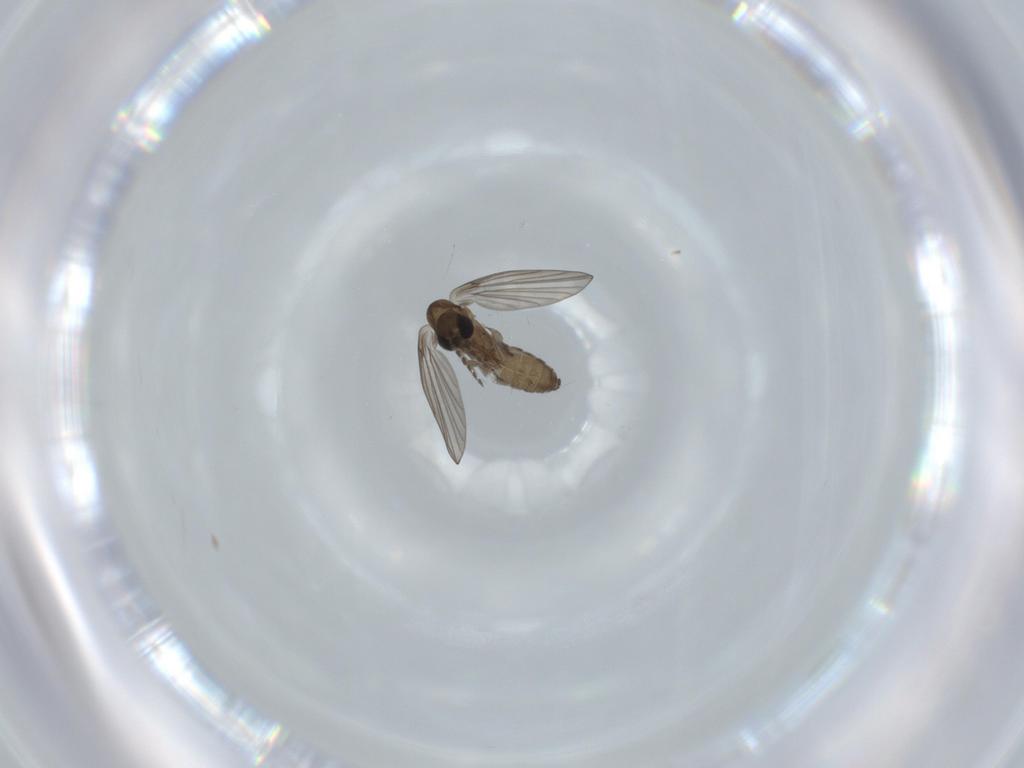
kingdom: Animalia
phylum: Arthropoda
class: Insecta
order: Diptera
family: Psychodidae
